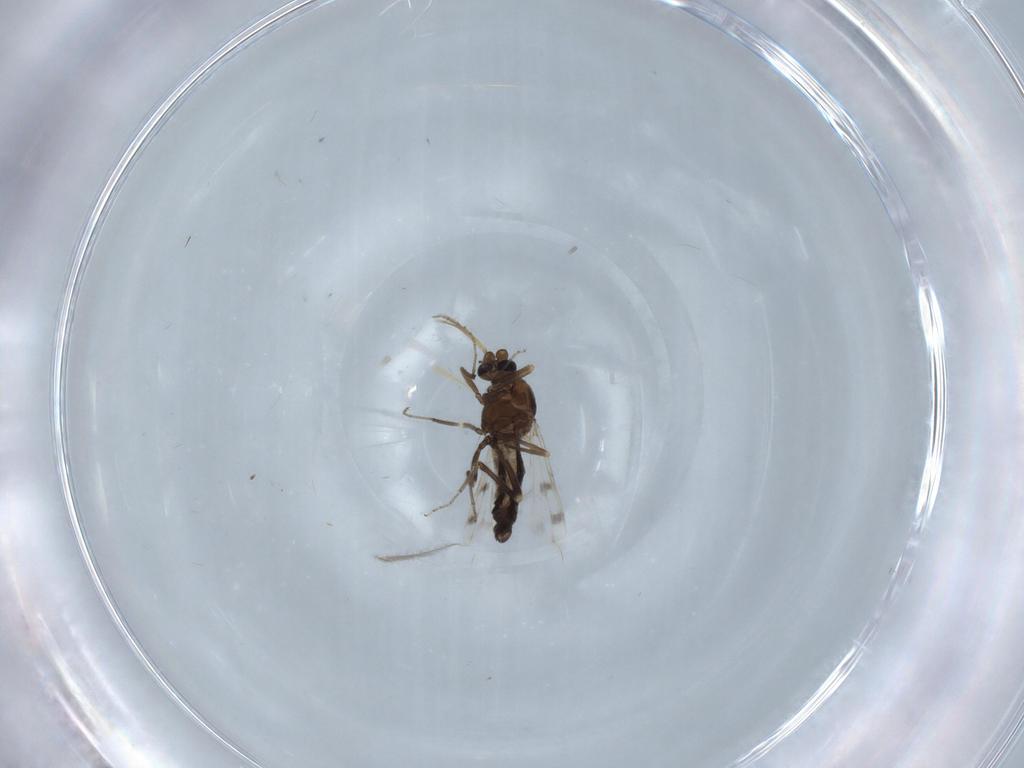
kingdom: Animalia
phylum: Arthropoda
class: Insecta
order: Diptera
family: Ceratopogonidae
